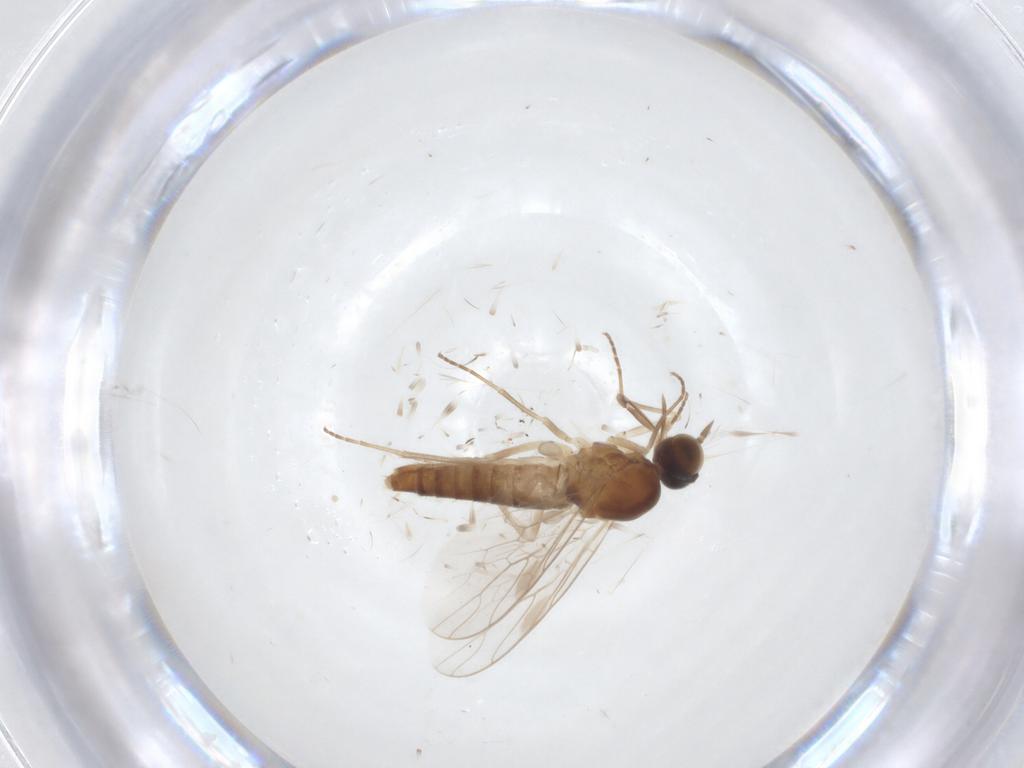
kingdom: Animalia
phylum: Arthropoda
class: Insecta
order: Diptera
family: Scenopinidae
